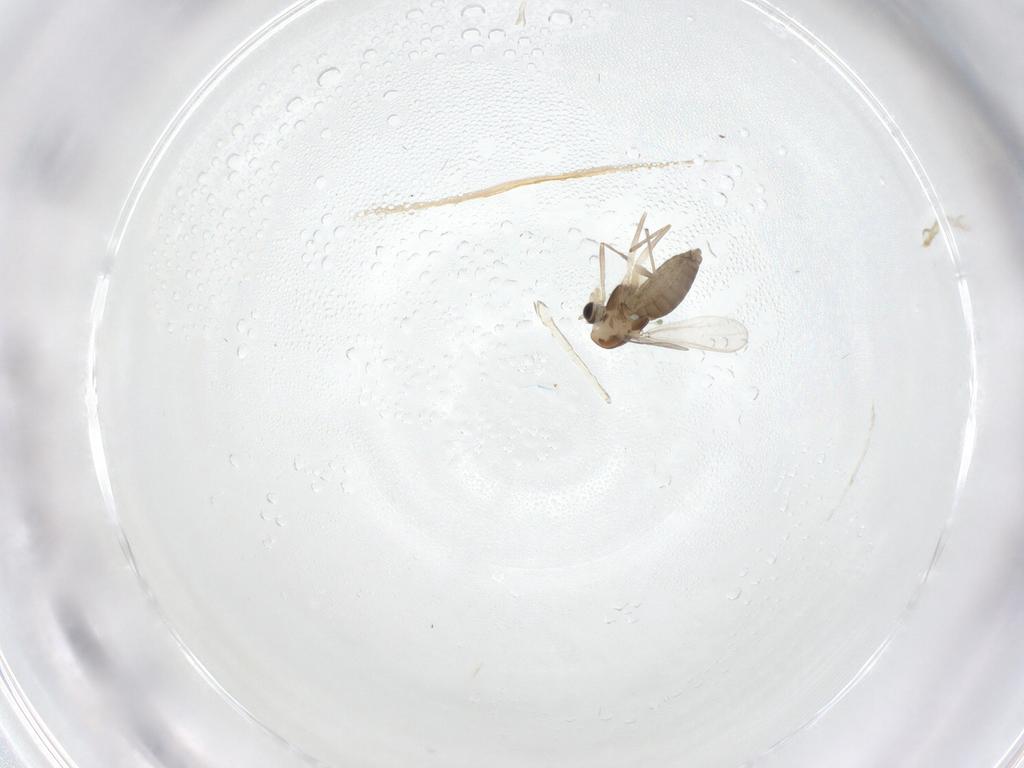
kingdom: Animalia
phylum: Arthropoda
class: Insecta
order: Diptera
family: Chironomidae
